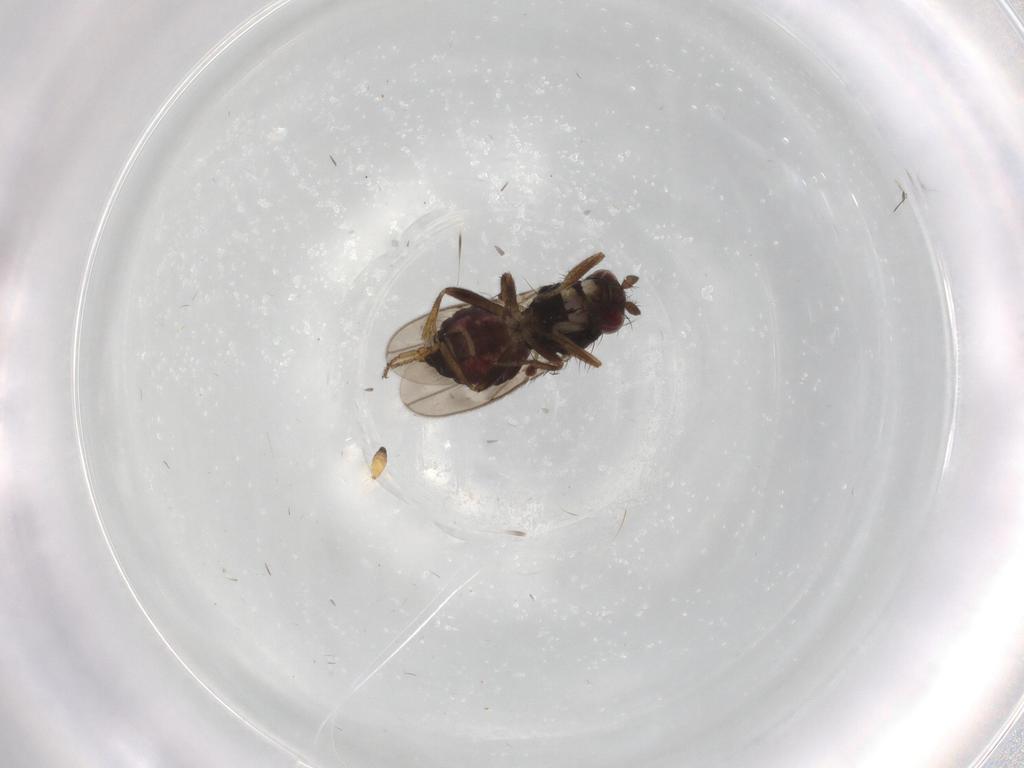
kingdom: Animalia
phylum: Arthropoda
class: Insecta
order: Diptera
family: Sphaeroceridae
